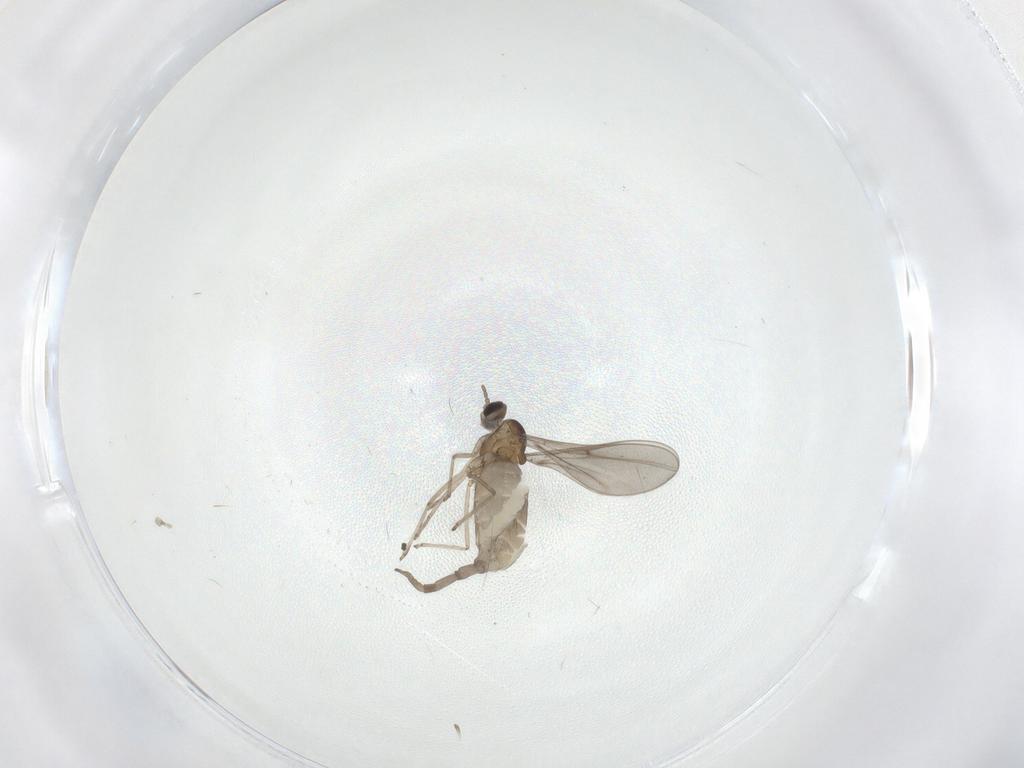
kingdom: Animalia
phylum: Arthropoda
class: Insecta
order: Diptera
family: Cecidomyiidae
